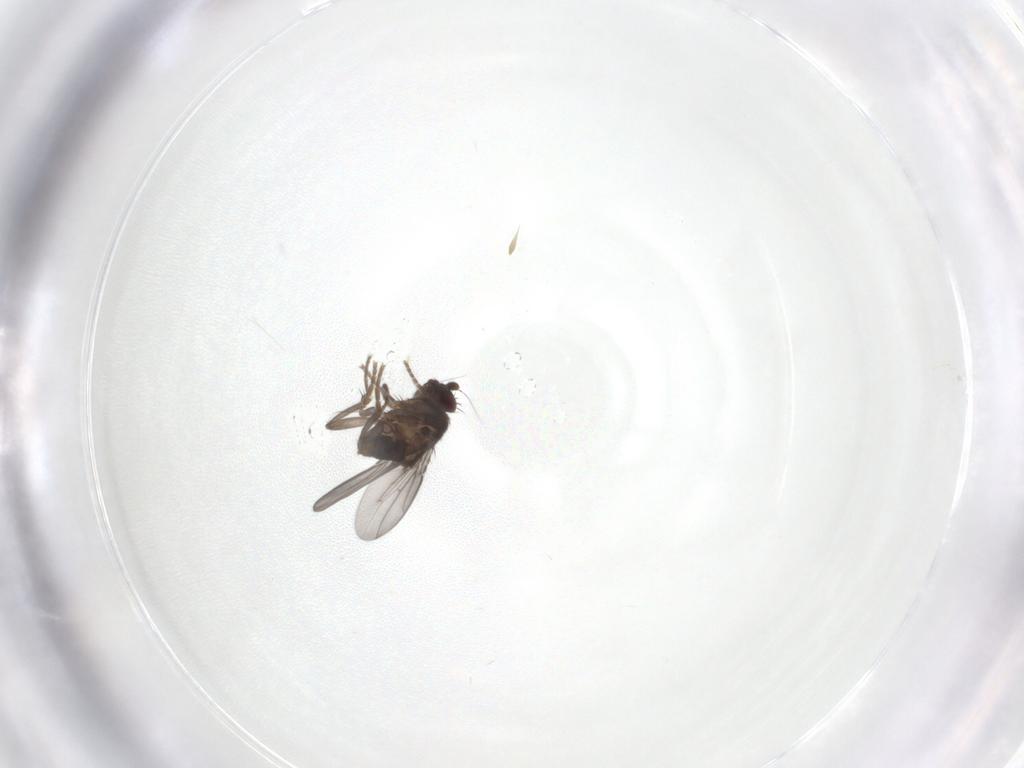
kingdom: Animalia
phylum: Arthropoda
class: Insecta
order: Diptera
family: Sphaeroceridae
